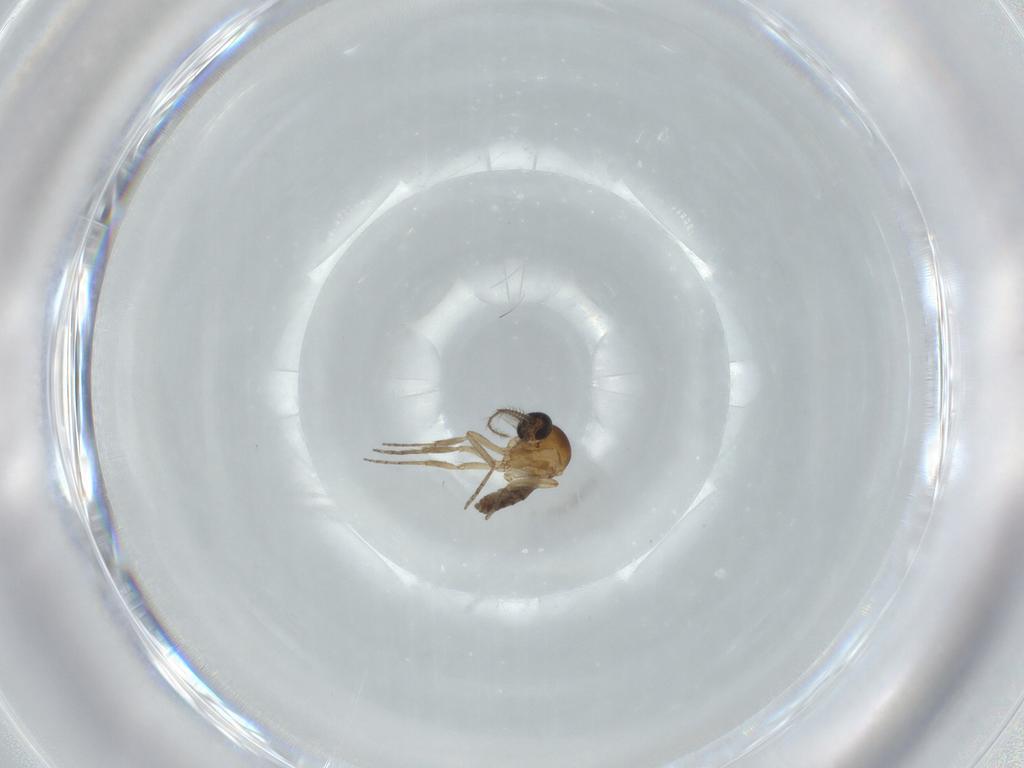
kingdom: Animalia
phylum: Arthropoda
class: Insecta
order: Diptera
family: Ceratopogonidae
